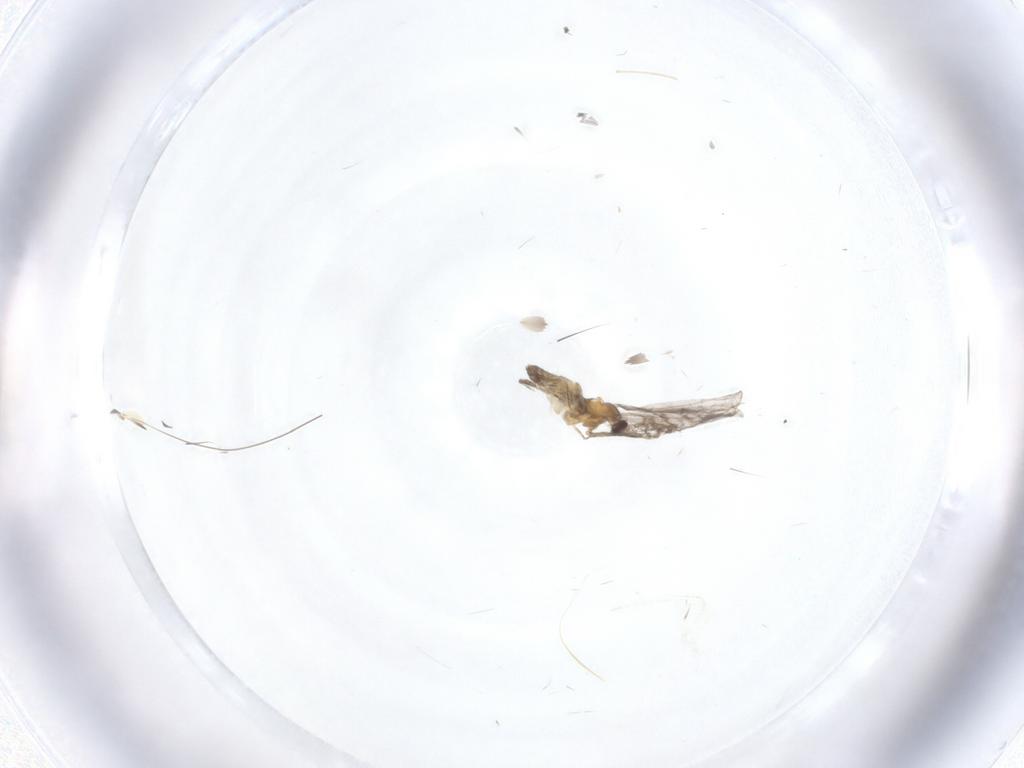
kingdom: Animalia
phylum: Arthropoda
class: Insecta
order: Diptera
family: Cecidomyiidae
